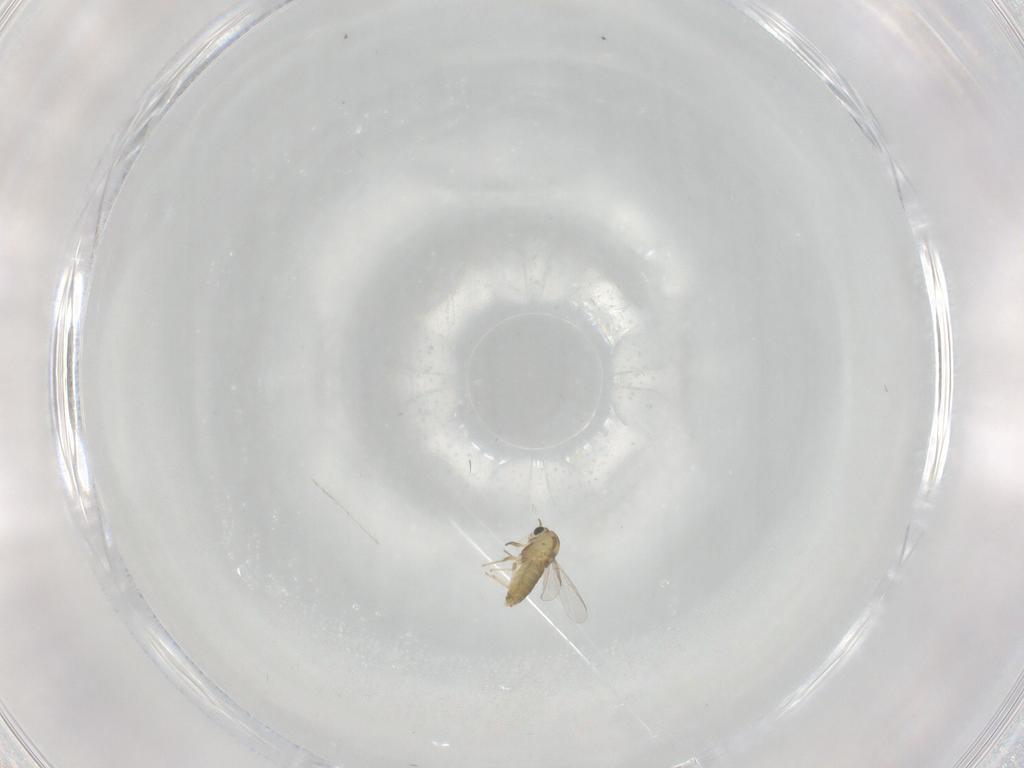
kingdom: Animalia
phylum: Arthropoda
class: Insecta
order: Diptera
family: Chironomidae
